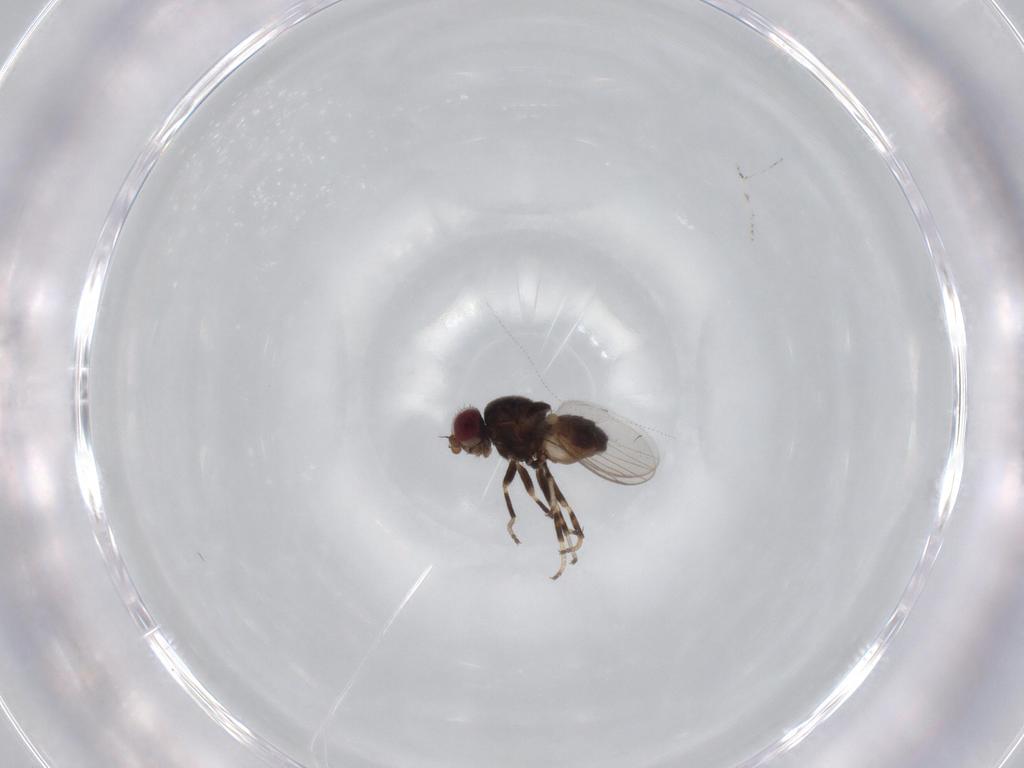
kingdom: Animalia
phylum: Arthropoda
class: Insecta
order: Diptera
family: Chloropidae
